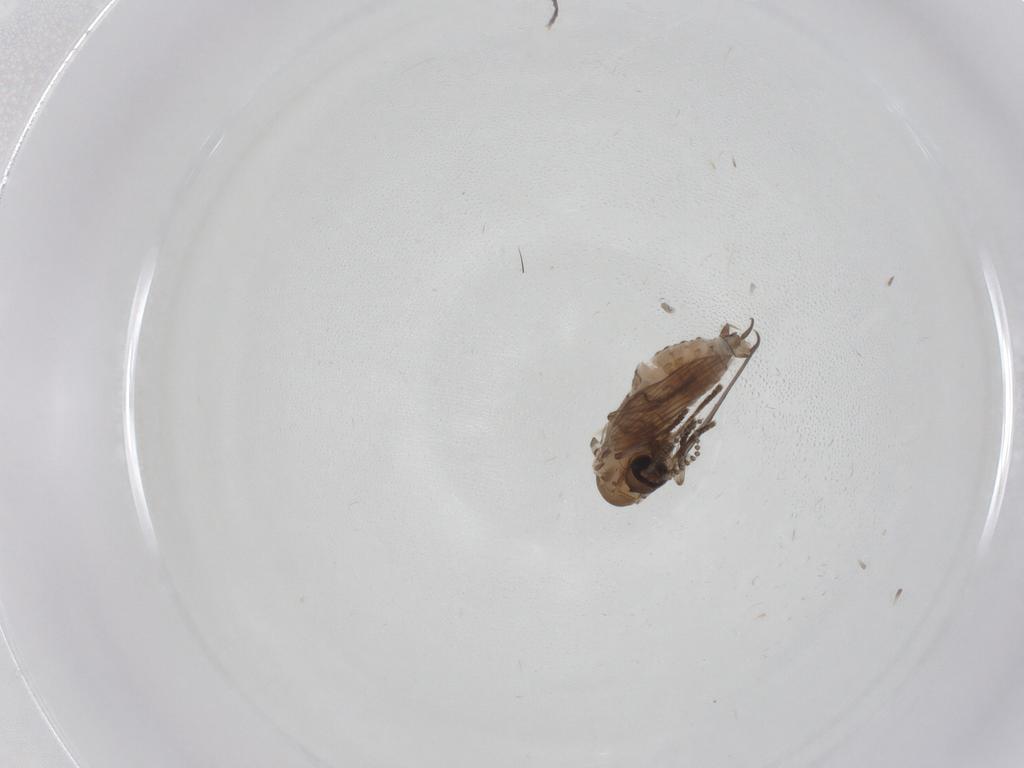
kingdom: Animalia
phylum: Arthropoda
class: Insecta
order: Diptera
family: Psychodidae
